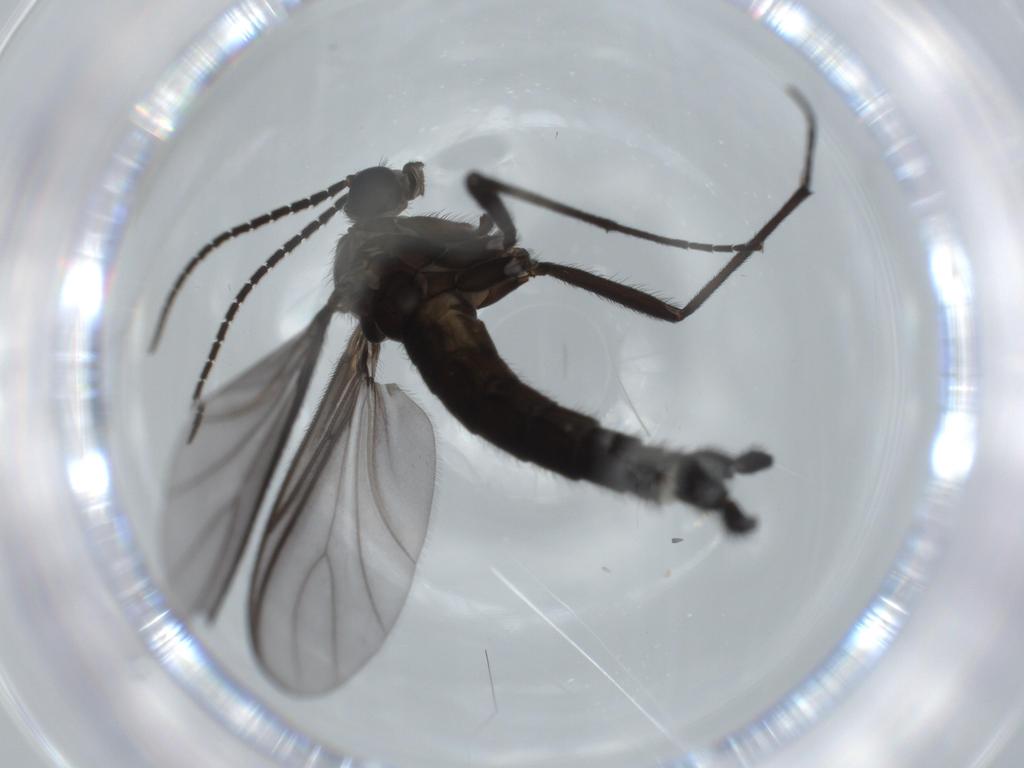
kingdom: Animalia
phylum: Arthropoda
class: Insecta
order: Diptera
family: Sciaridae
